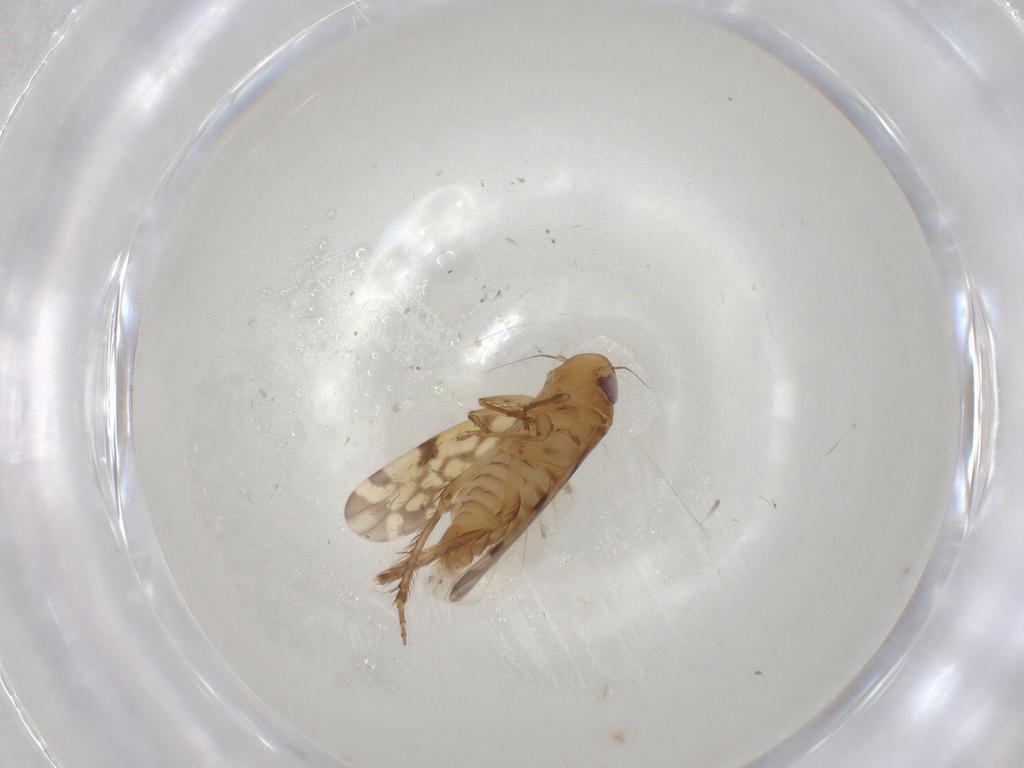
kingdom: Animalia
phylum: Arthropoda
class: Insecta
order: Hemiptera
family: Cicadellidae
